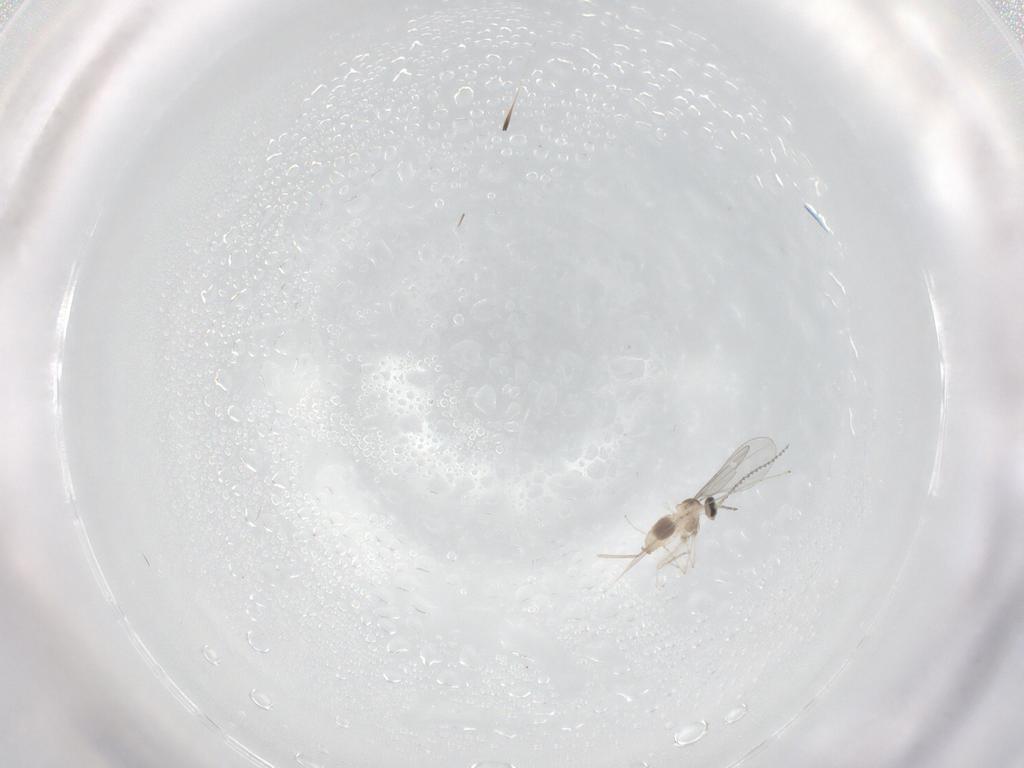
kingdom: Animalia
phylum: Arthropoda
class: Insecta
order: Diptera
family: Cecidomyiidae
